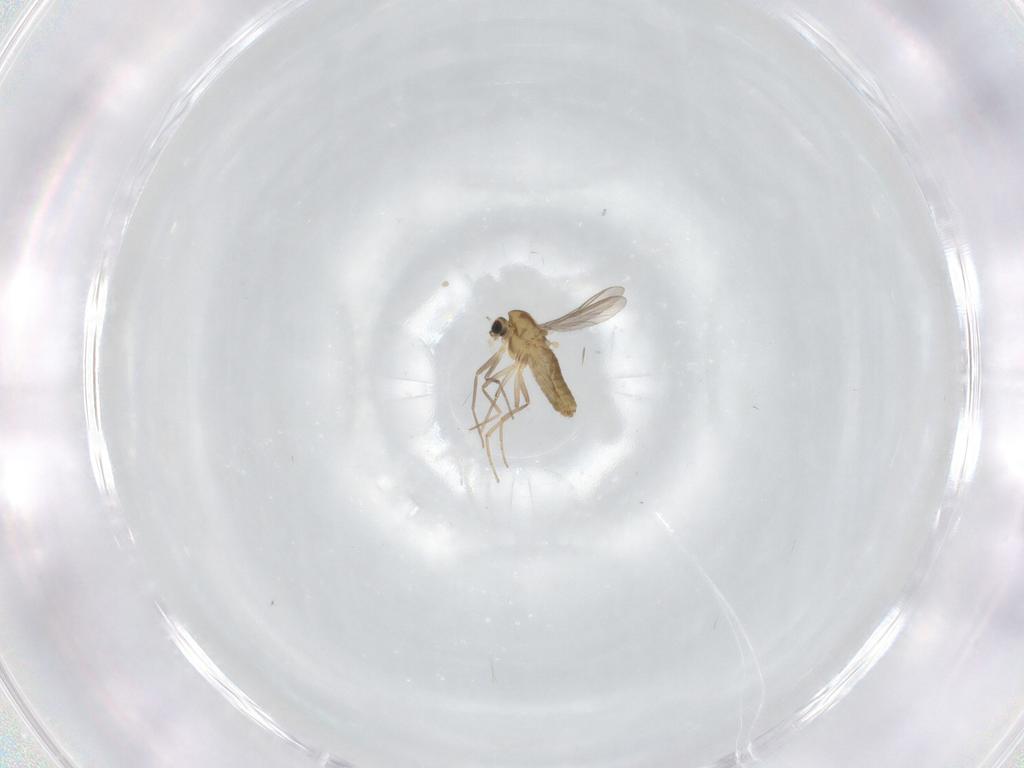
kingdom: Animalia
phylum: Arthropoda
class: Insecta
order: Diptera
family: Chironomidae
